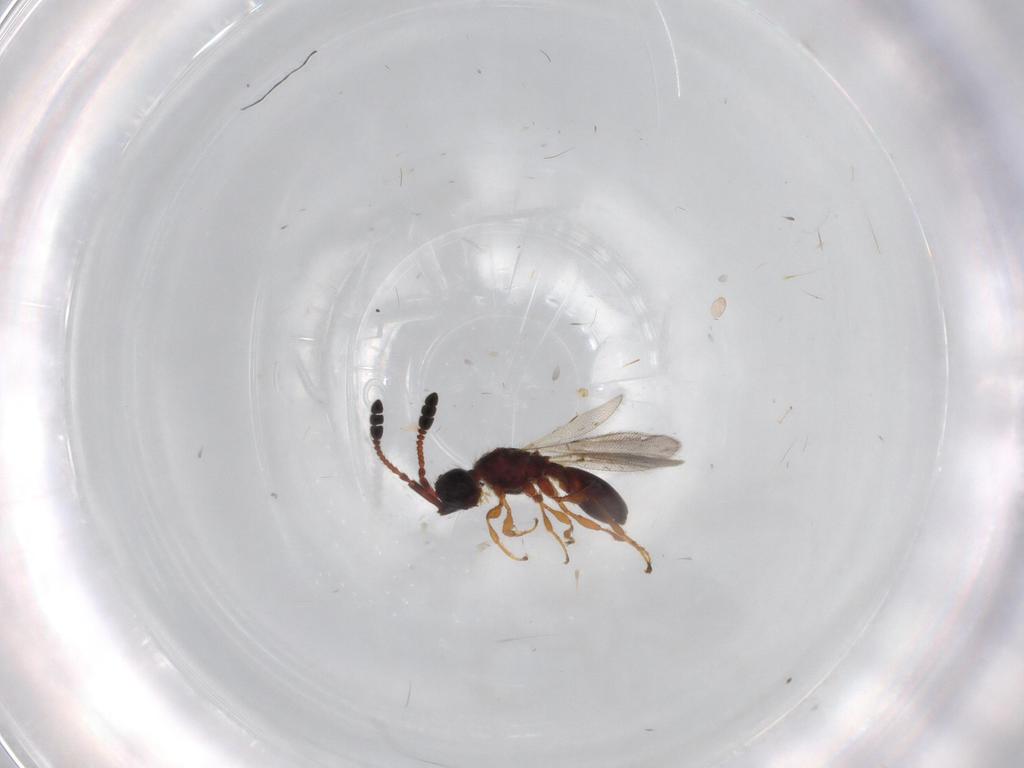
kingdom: Animalia
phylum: Arthropoda
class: Insecta
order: Hymenoptera
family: Diapriidae
